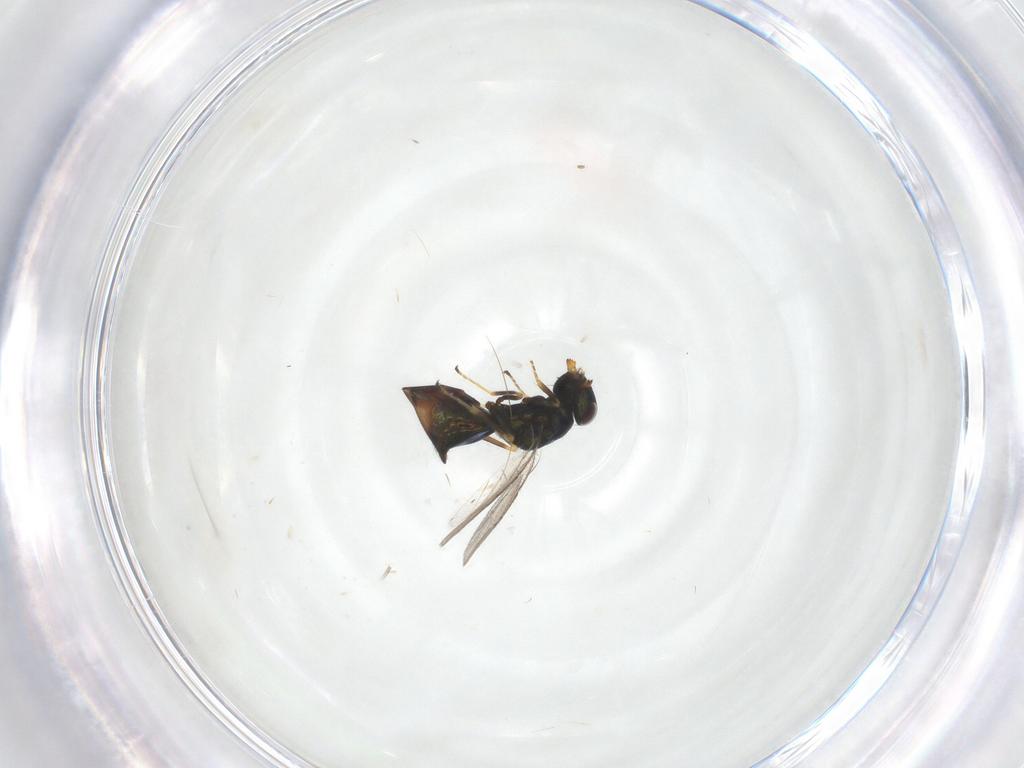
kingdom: Animalia
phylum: Arthropoda
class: Insecta
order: Hymenoptera
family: Pteromalidae
